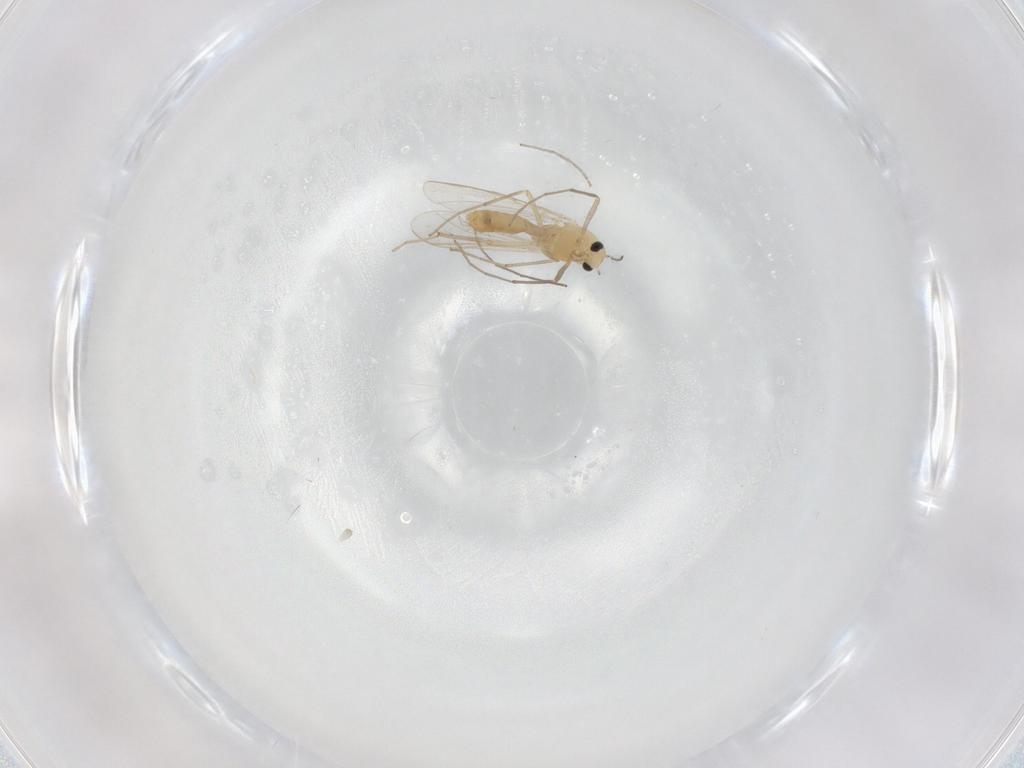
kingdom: Animalia
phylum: Arthropoda
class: Insecta
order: Diptera
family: Chironomidae
